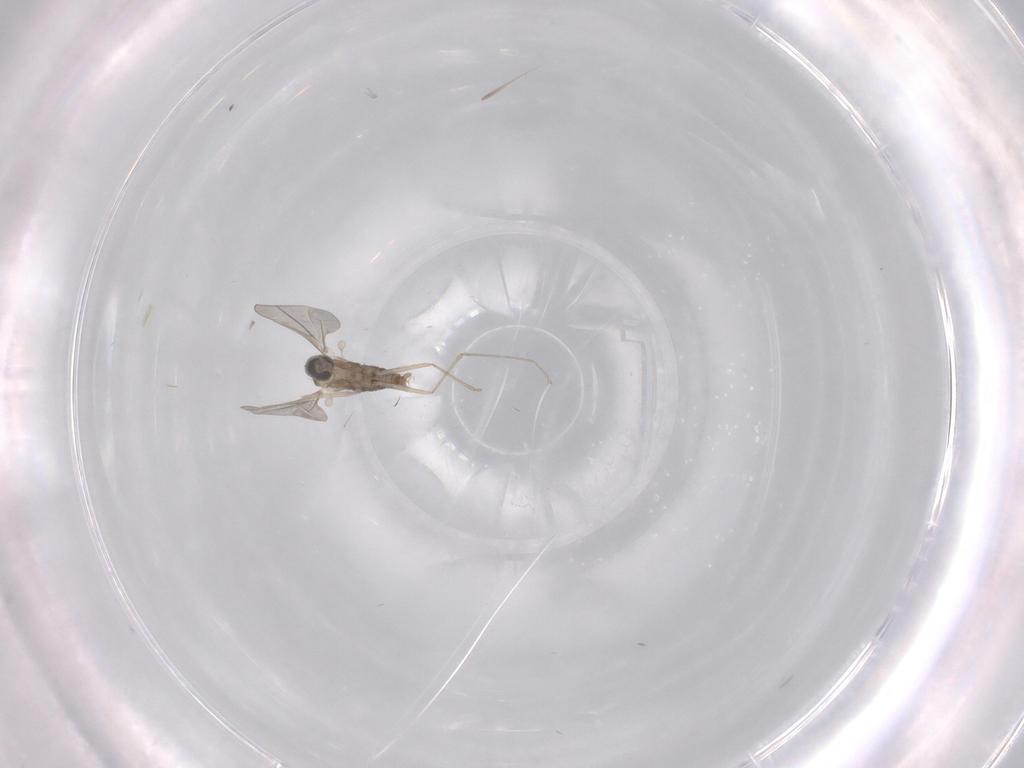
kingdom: Animalia
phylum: Arthropoda
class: Insecta
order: Diptera
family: Cecidomyiidae
